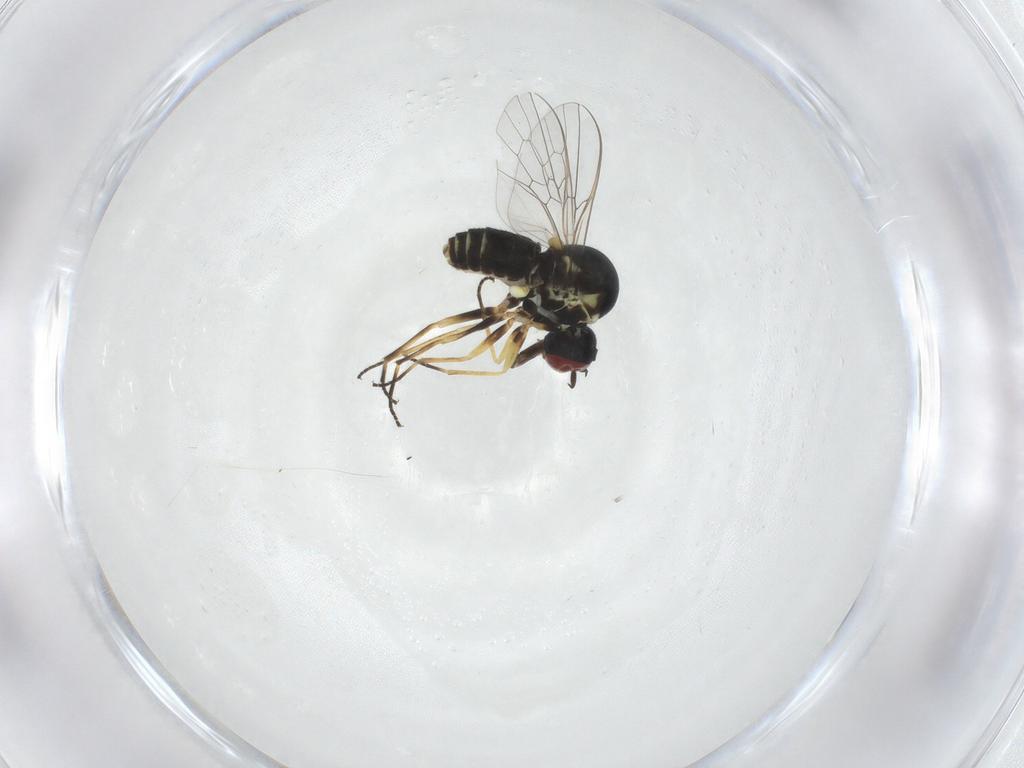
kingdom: Animalia
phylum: Arthropoda
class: Insecta
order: Diptera
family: Bombyliidae
